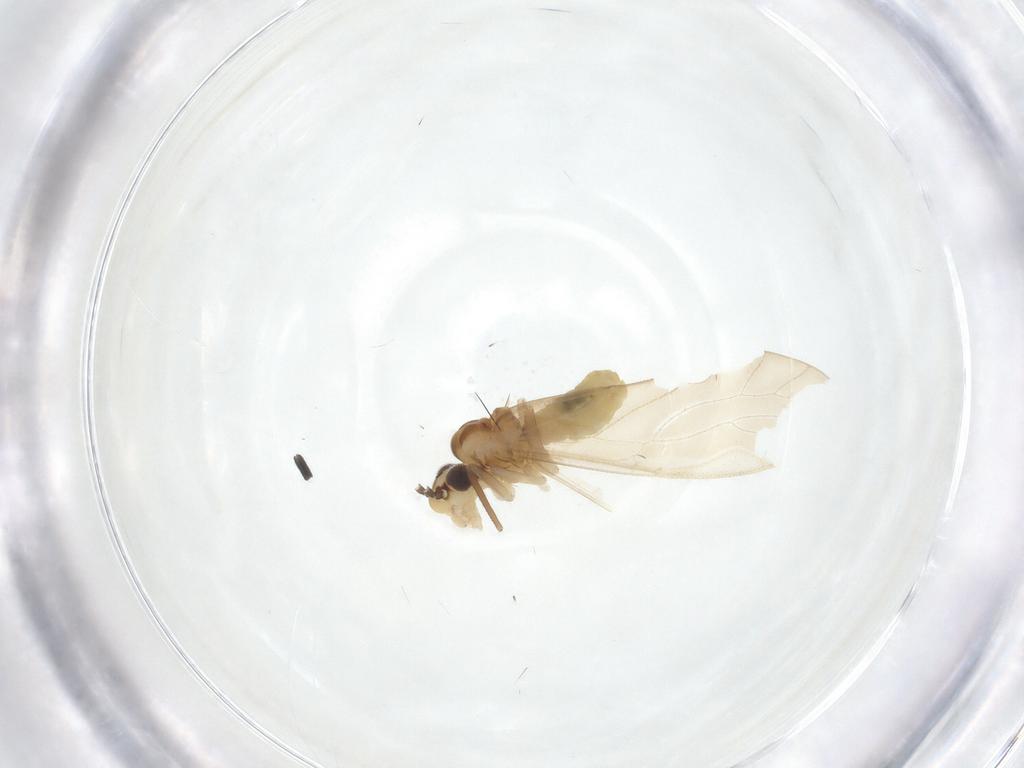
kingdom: Animalia
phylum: Arthropoda
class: Insecta
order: Psocodea
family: Caeciliusidae
